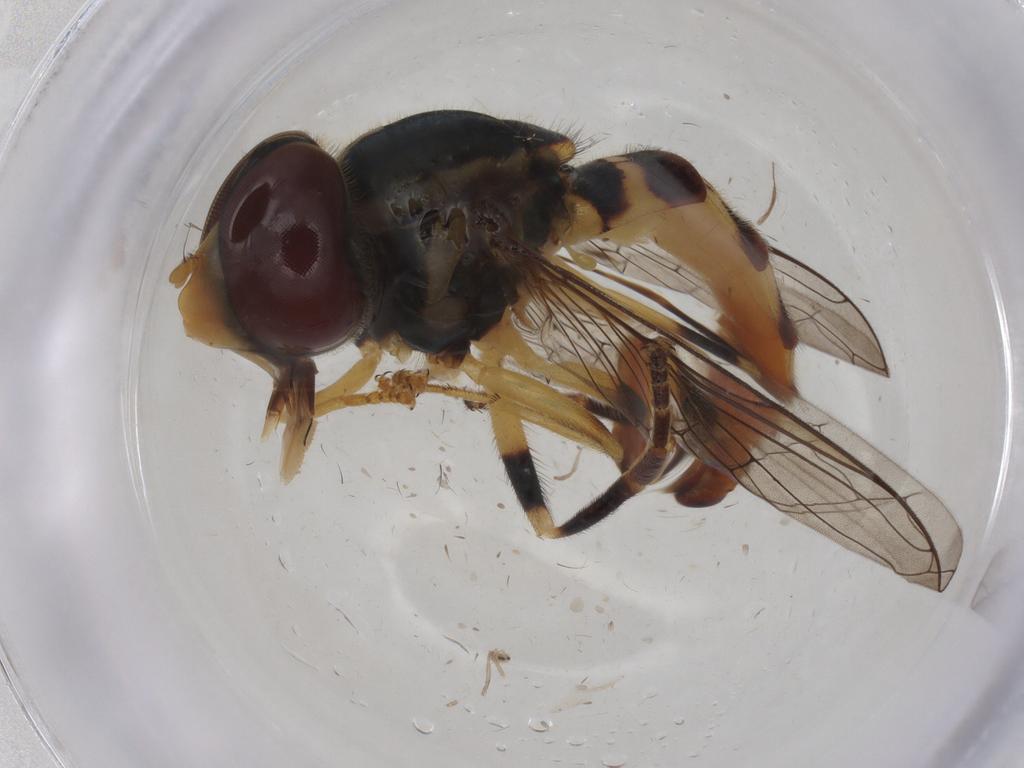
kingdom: Animalia
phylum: Arthropoda
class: Insecta
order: Diptera
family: Syrphidae
